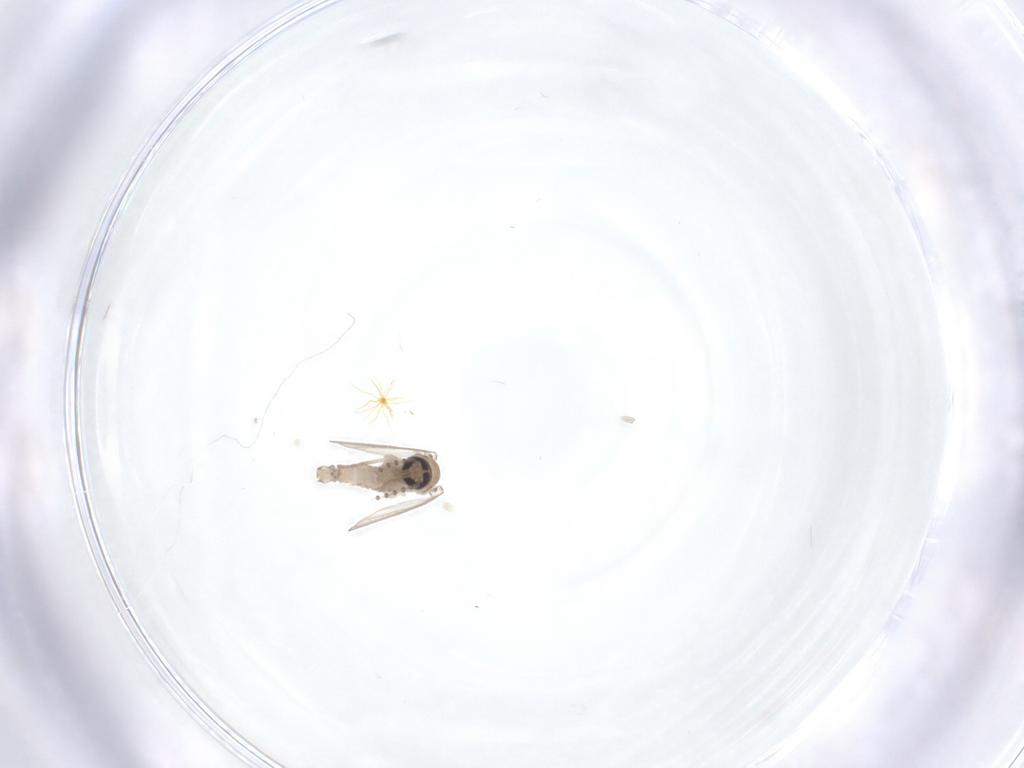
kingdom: Animalia
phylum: Arthropoda
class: Insecta
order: Diptera
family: Psychodidae
